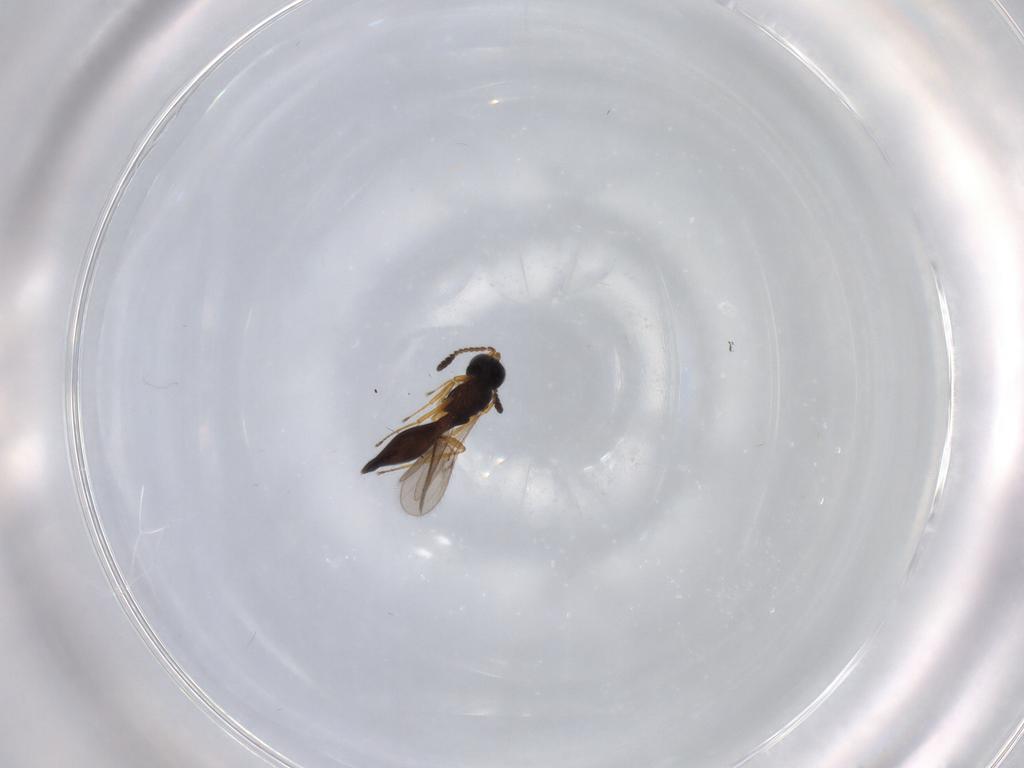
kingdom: Animalia
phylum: Arthropoda
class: Insecta
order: Hymenoptera
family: Scelionidae
